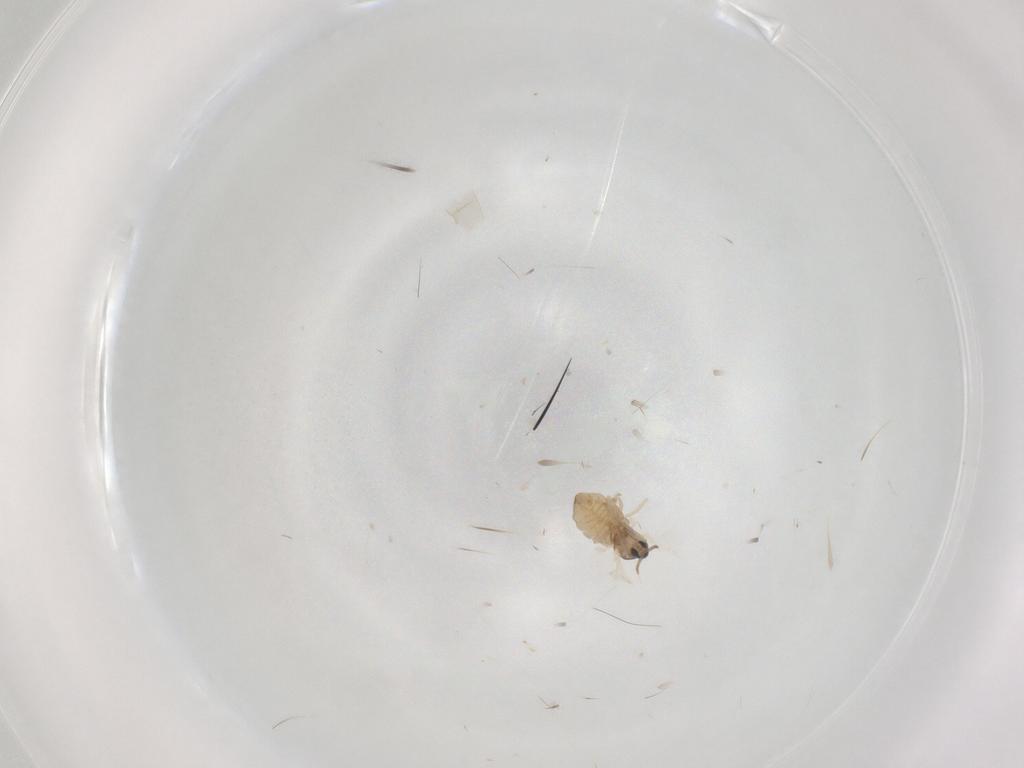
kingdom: Animalia
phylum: Arthropoda
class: Insecta
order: Diptera
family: Cecidomyiidae
